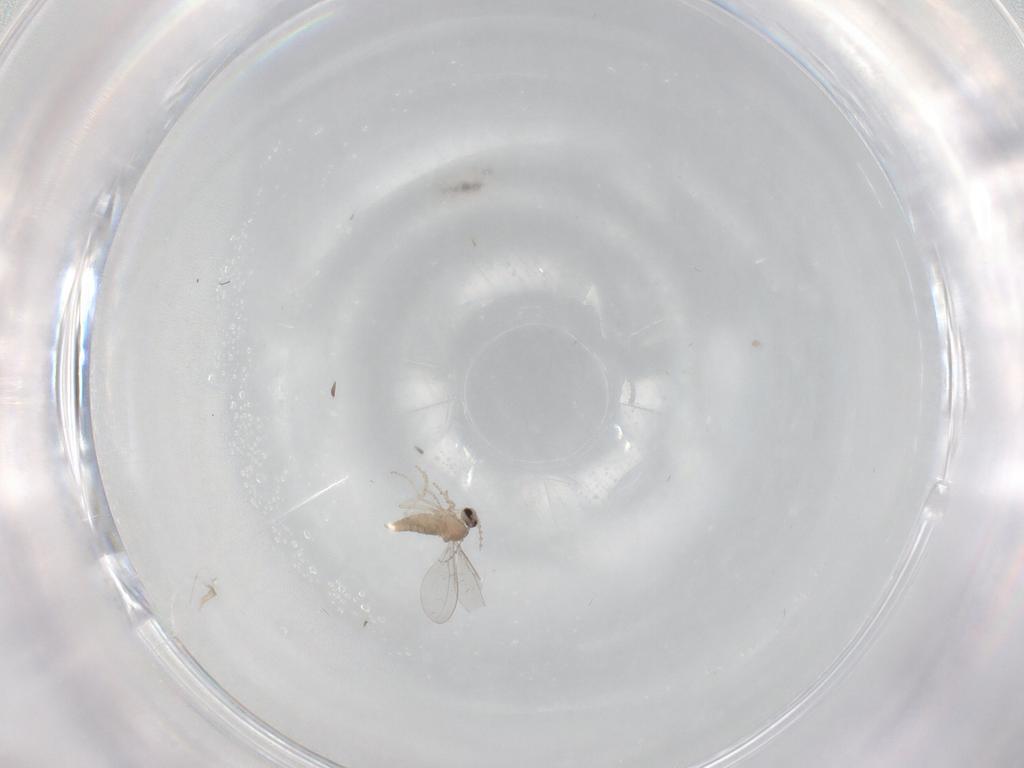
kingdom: Animalia
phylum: Arthropoda
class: Insecta
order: Diptera
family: Cecidomyiidae
